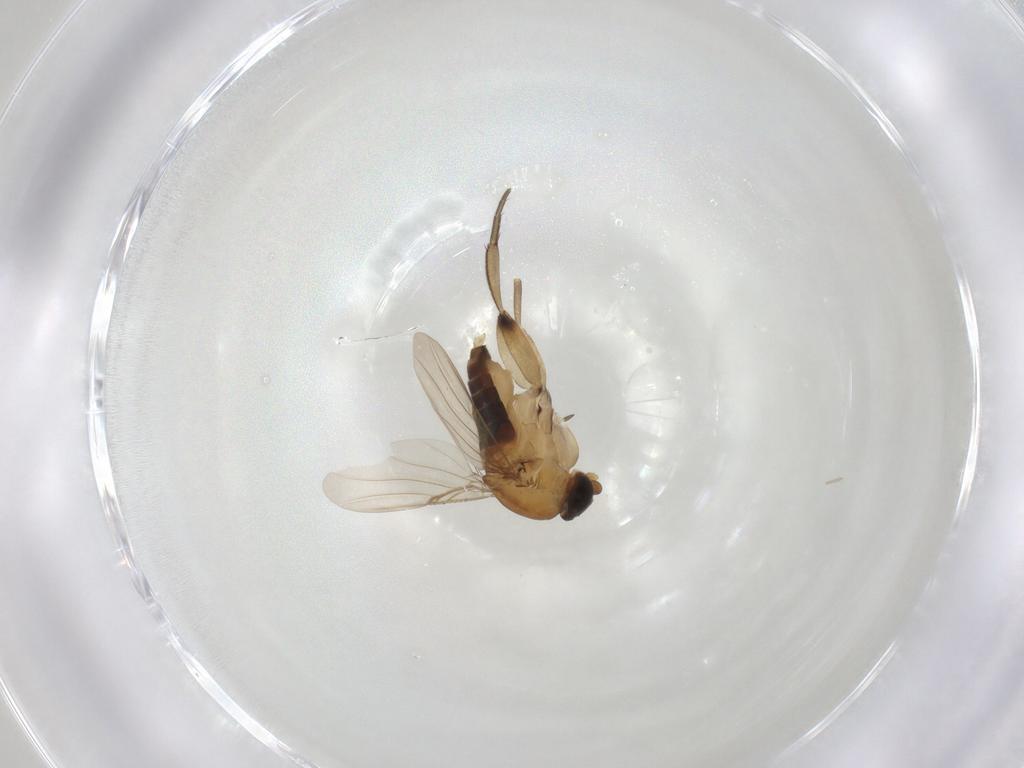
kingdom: Animalia
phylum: Arthropoda
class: Insecta
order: Diptera
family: Phoridae
